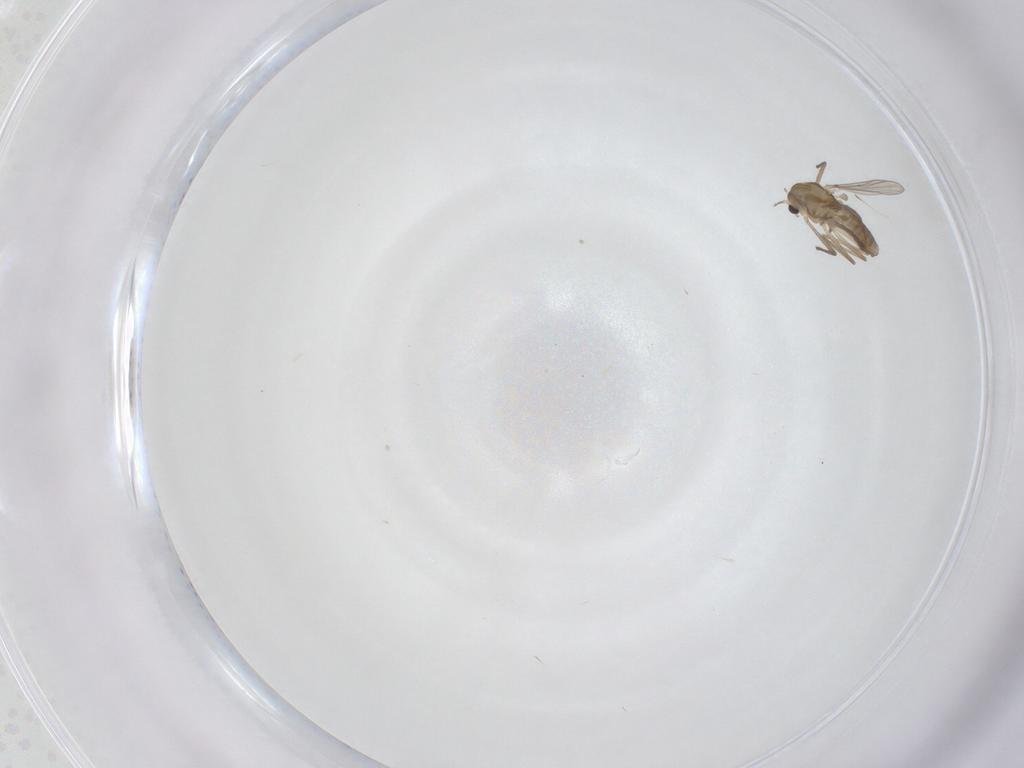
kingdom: Animalia
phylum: Arthropoda
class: Insecta
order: Diptera
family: Chironomidae
